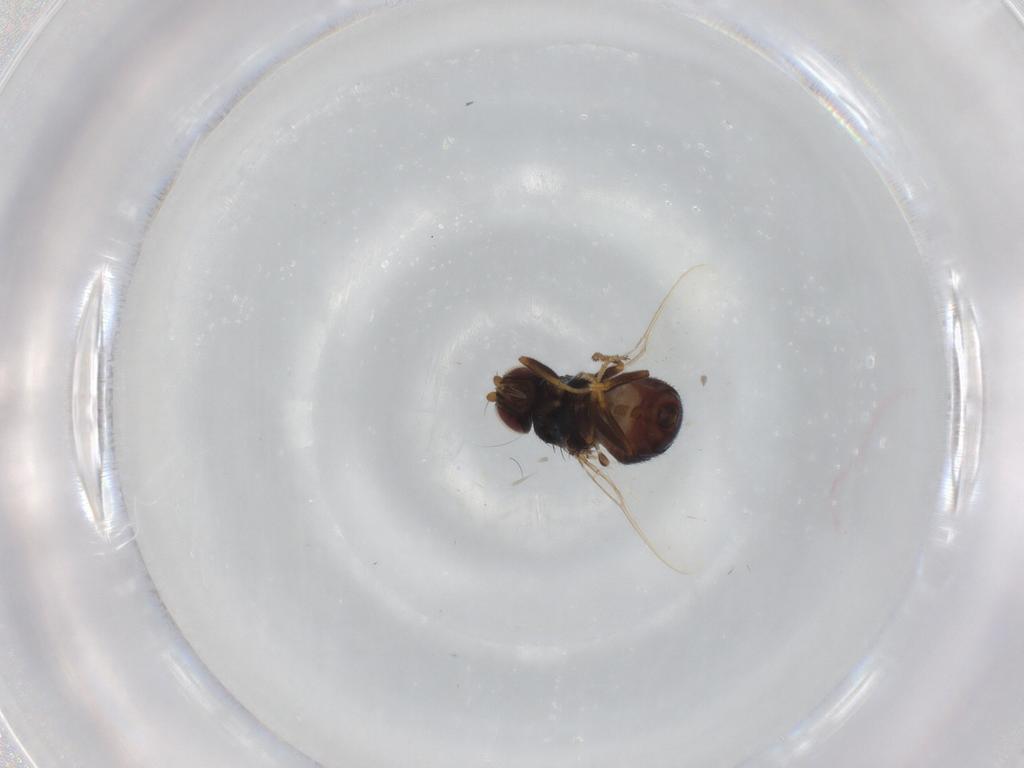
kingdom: Animalia
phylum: Arthropoda
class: Insecta
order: Diptera
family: Chloropidae
